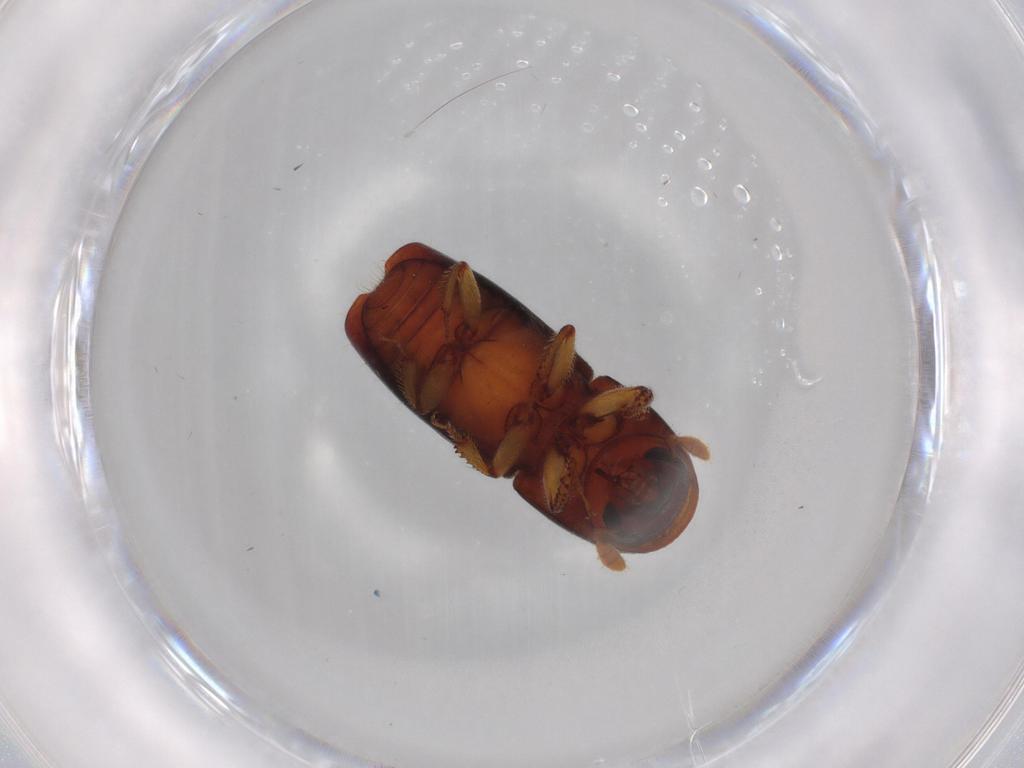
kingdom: Animalia
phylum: Arthropoda
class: Insecta
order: Coleoptera
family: Curculionidae
